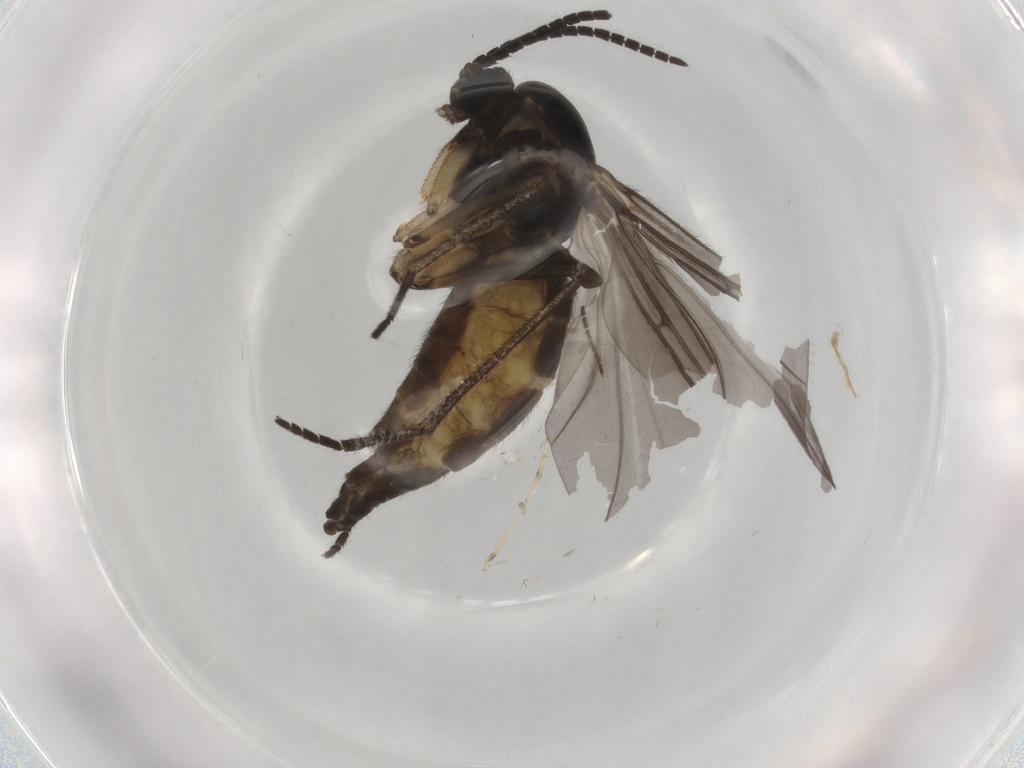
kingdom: Animalia
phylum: Arthropoda
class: Insecta
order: Diptera
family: Sciaridae
